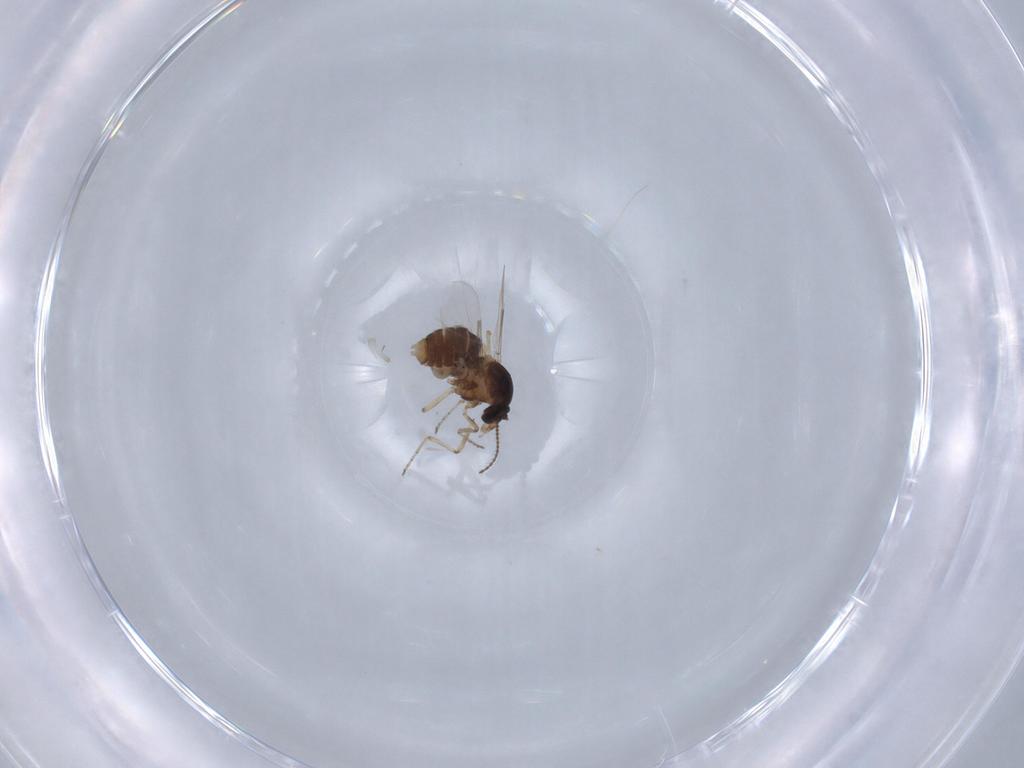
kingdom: Animalia
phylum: Arthropoda
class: Insecta
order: Diptera
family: Ceratopogonidae
